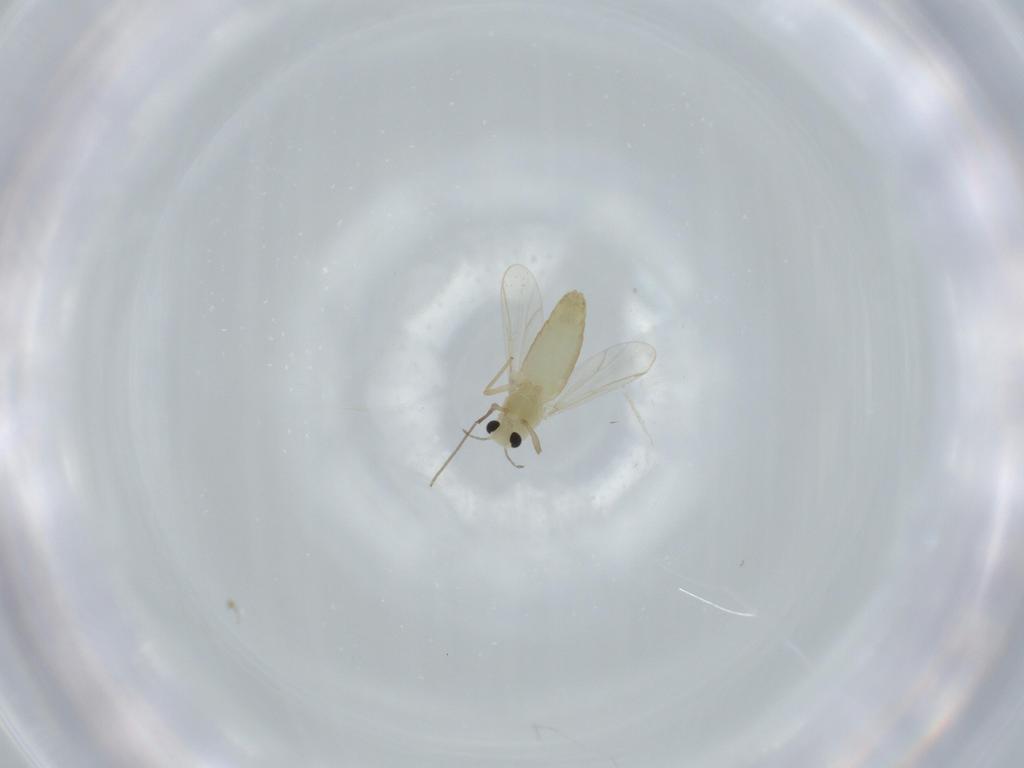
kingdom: Animalia
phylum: Arthropoda
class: Insecta
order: Diptera
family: Chironomidae
